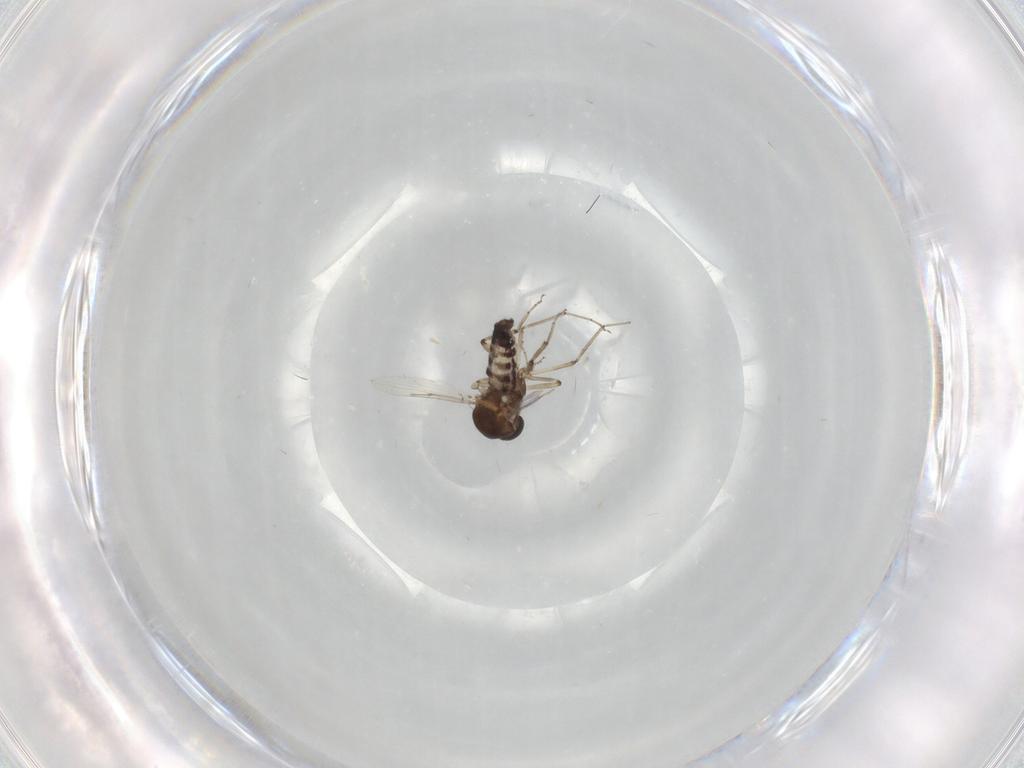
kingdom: Animalia
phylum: Arthropoda
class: Insecta
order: Diptera
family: Ceratopogonidae
